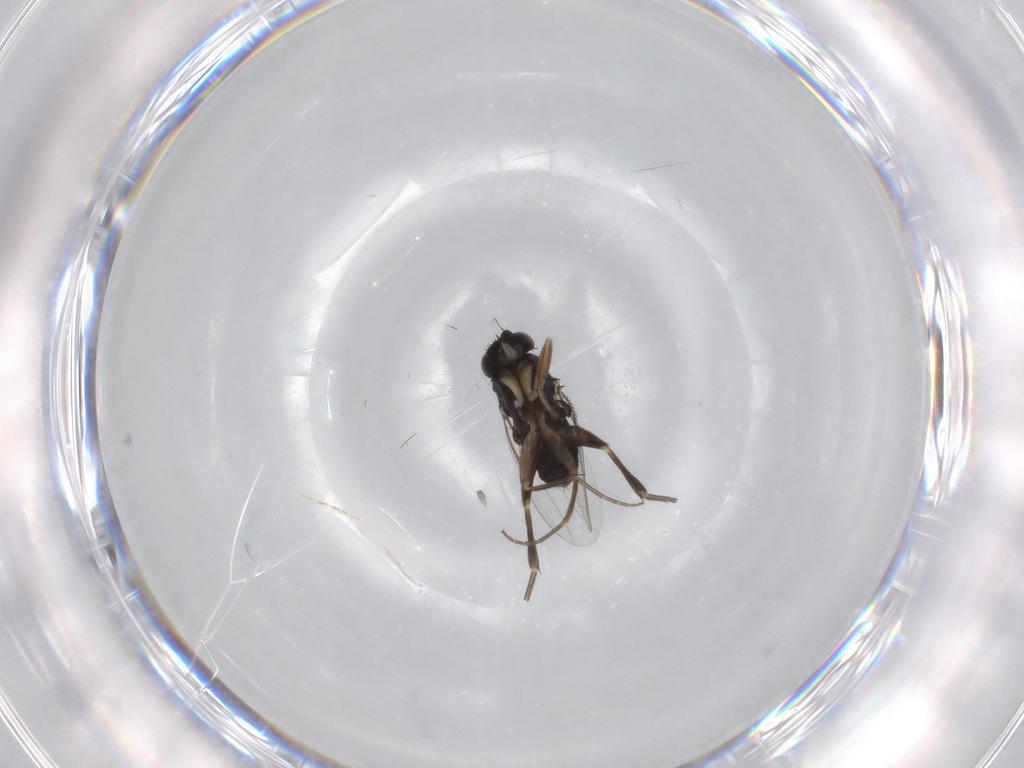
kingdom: Animalia
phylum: Arthropoda
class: Insecta
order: Diptera
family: Phoridae
